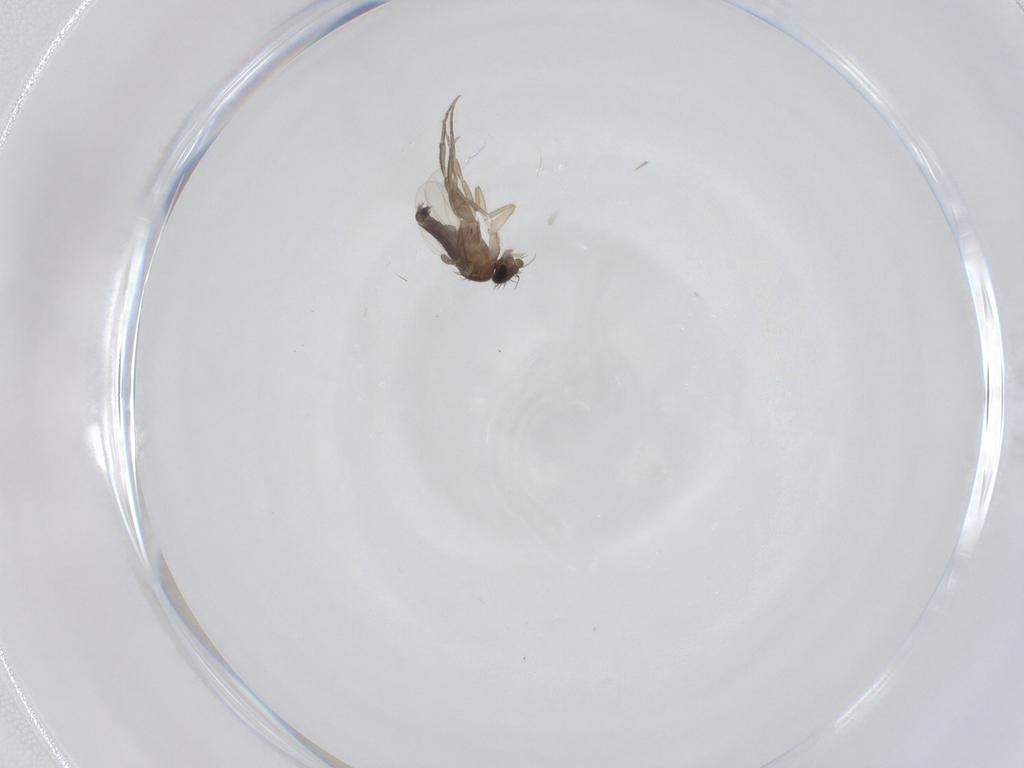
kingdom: Animalia
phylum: Arthropoda
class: Insecta
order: Diptera
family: Phoridae
